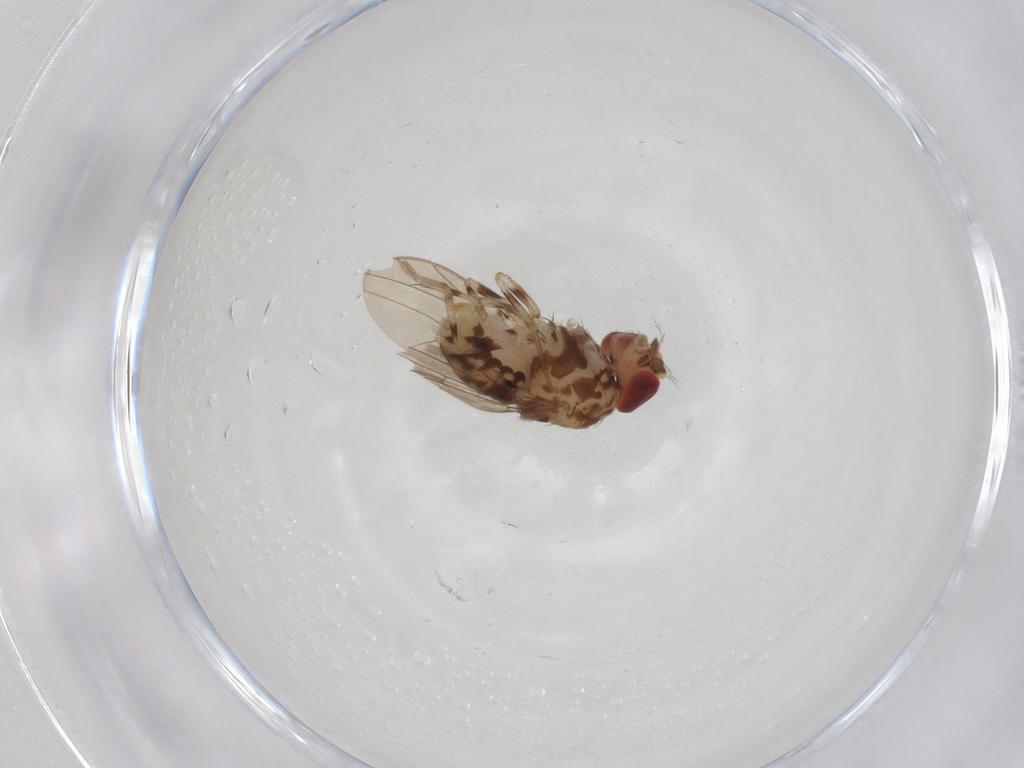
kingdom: Animalia
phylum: Arthropoda
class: Insecta
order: Diptera
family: Drosophilidae
